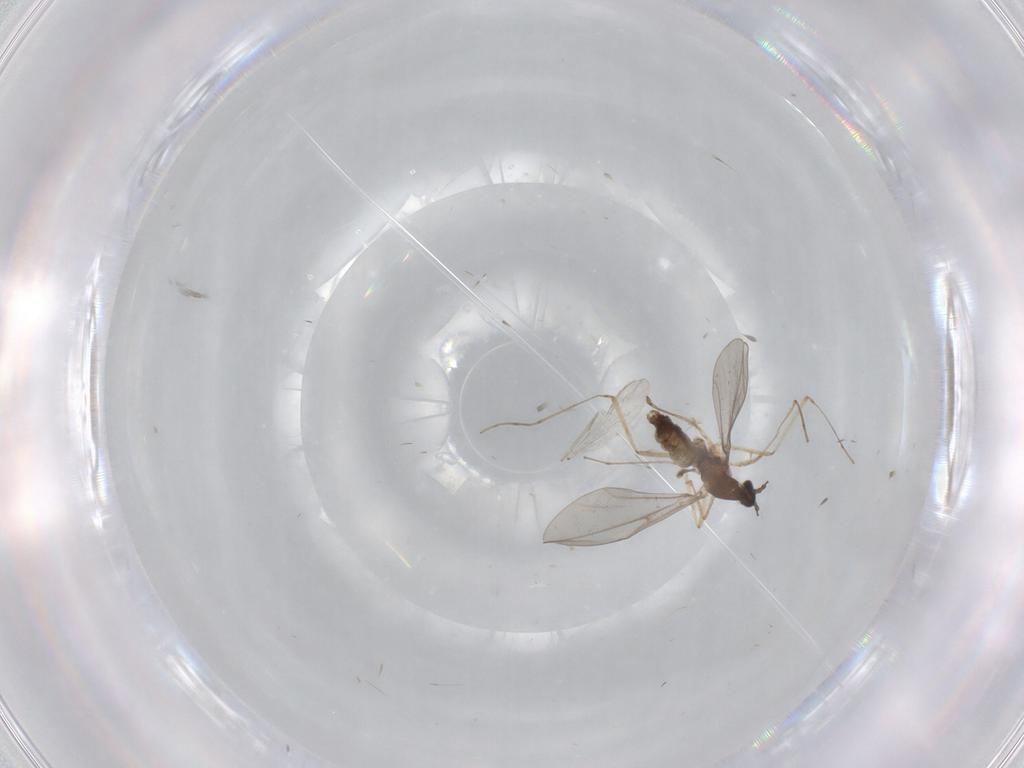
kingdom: Animalia
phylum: Arthropoda
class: Insecta
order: Diptera
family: Cecidomyiidae
